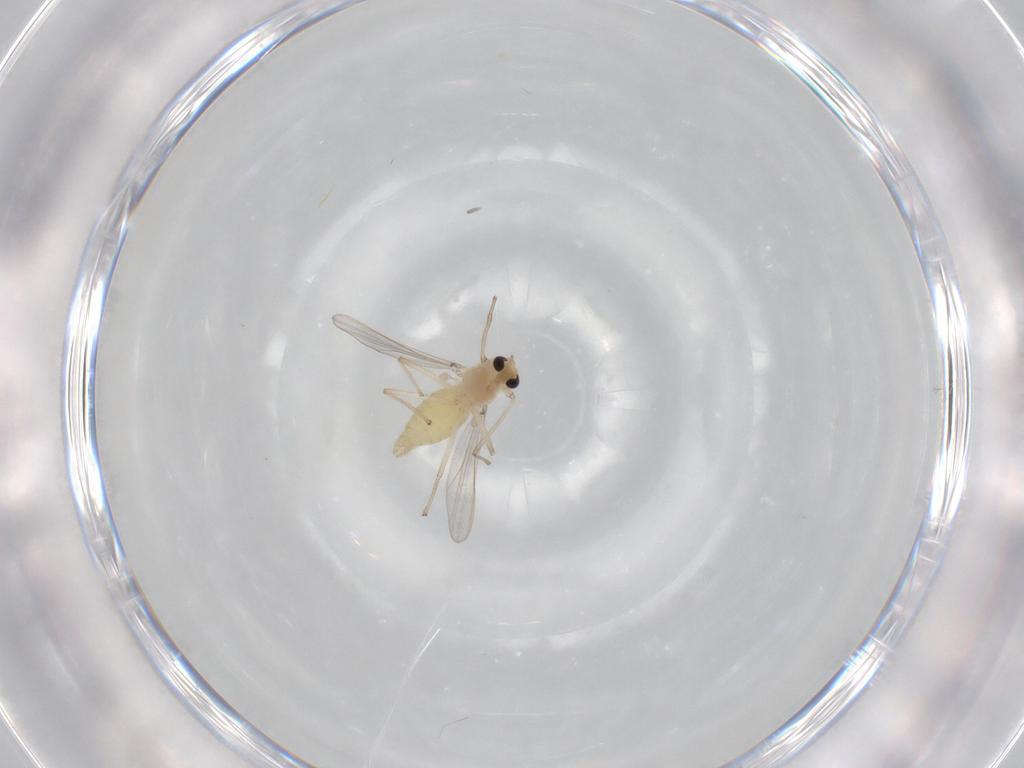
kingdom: Animalia
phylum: Arthropoda
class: Insecta
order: Diptera
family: Chironomidae
